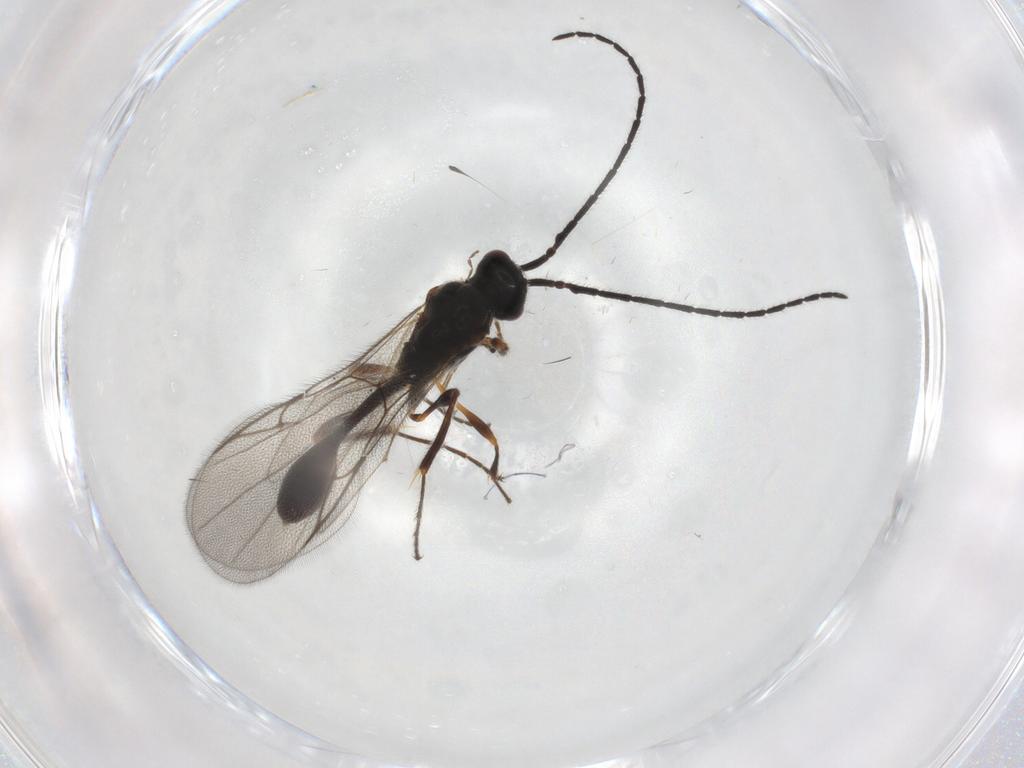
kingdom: Animalia
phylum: Arthropoda
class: Insecta
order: Hymenoptera
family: Diapriidae
